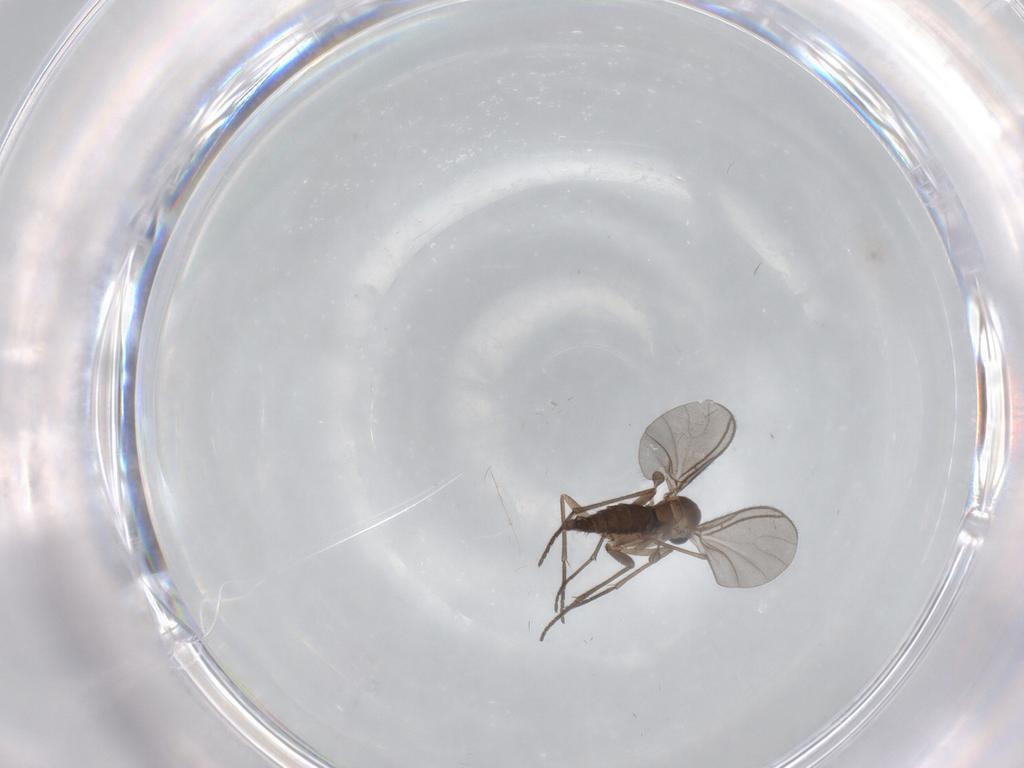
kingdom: Animalia
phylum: Arthropoda
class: Insecta
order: Diptera
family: Sciaridae
